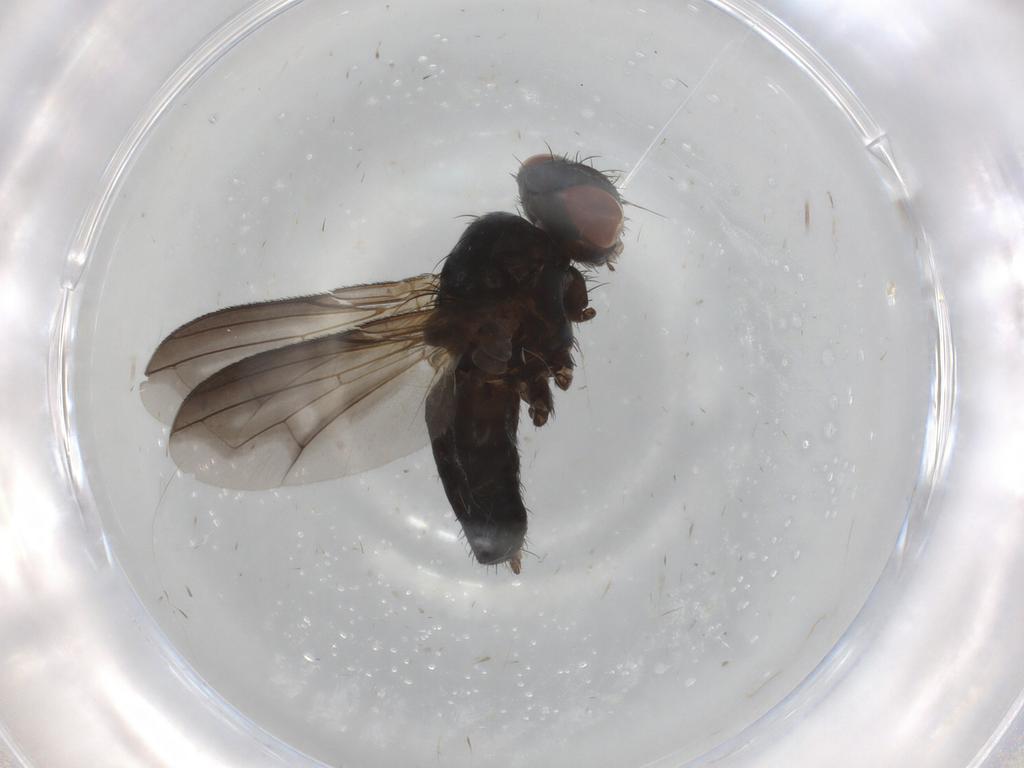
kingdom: Animalia
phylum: Arthropoda
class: Insecta
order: Diptera
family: Tachinidae
